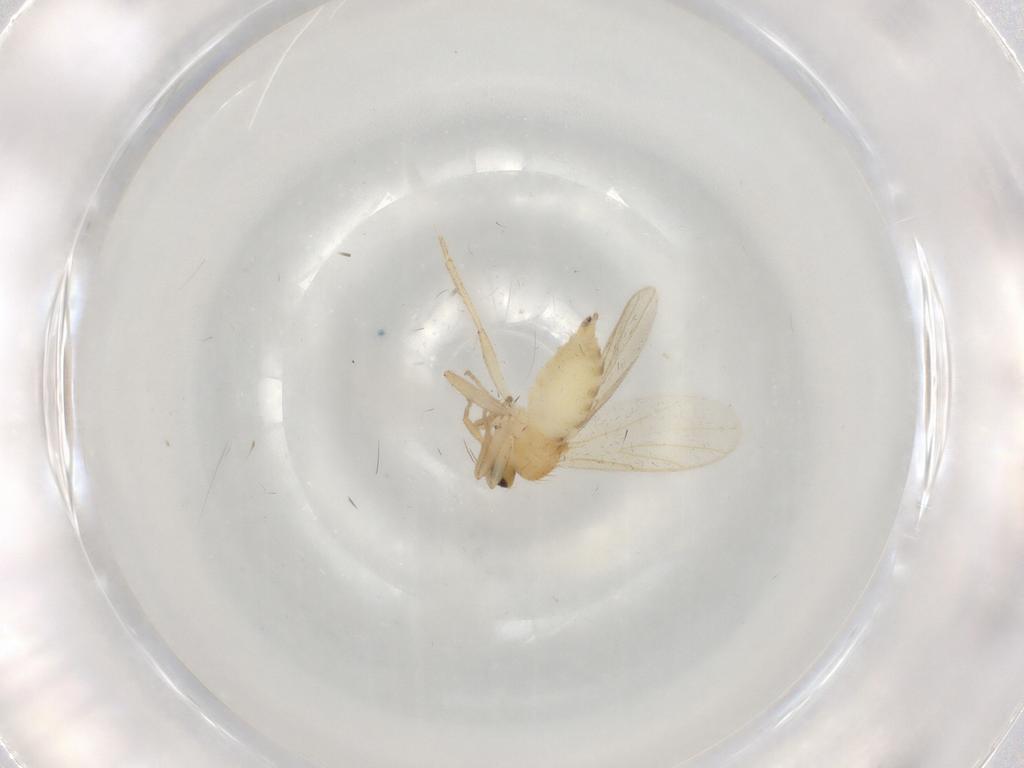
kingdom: Animalia
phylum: Arthropoda
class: Insecta
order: Diptera
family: Hybotidae
